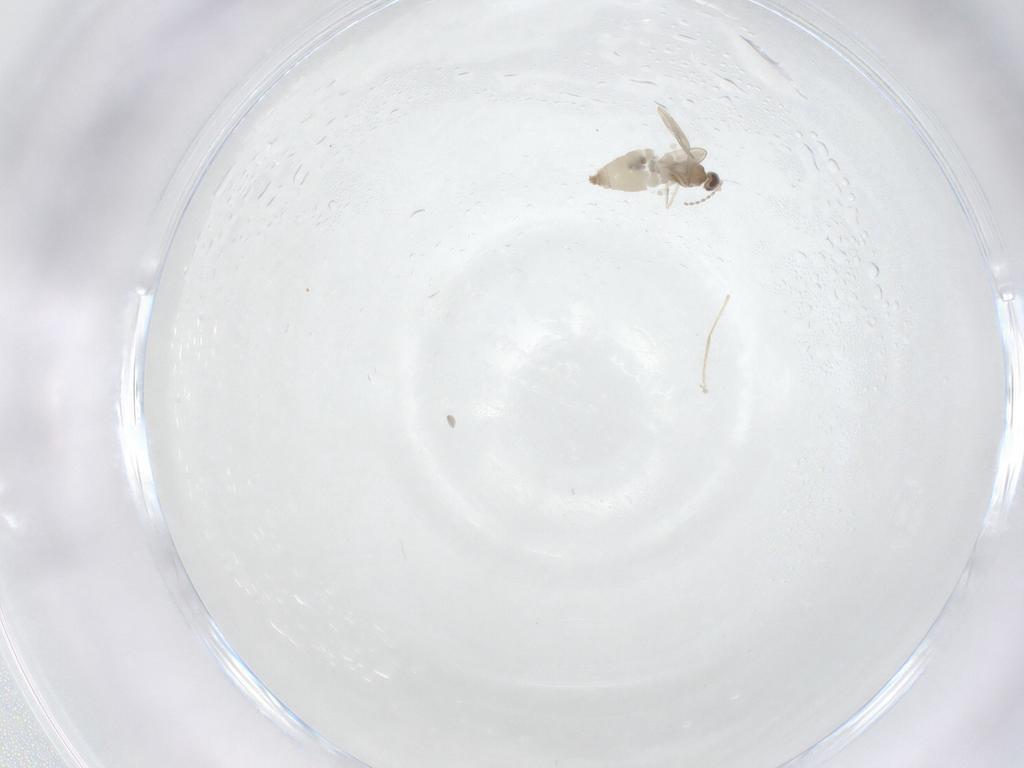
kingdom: Animalia
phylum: Arthropoda
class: Insecta
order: Diptera
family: Cecidomyiidae
